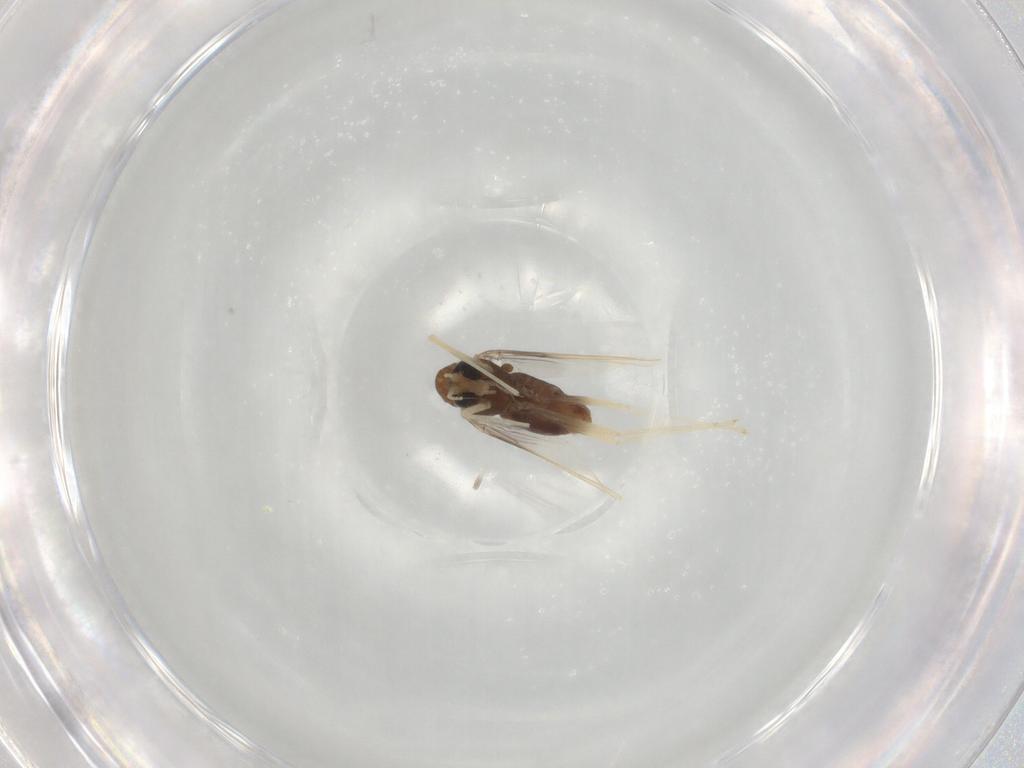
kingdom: Animalia
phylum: Arthropoda
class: Insecta
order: Diptera
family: Chironomidae
